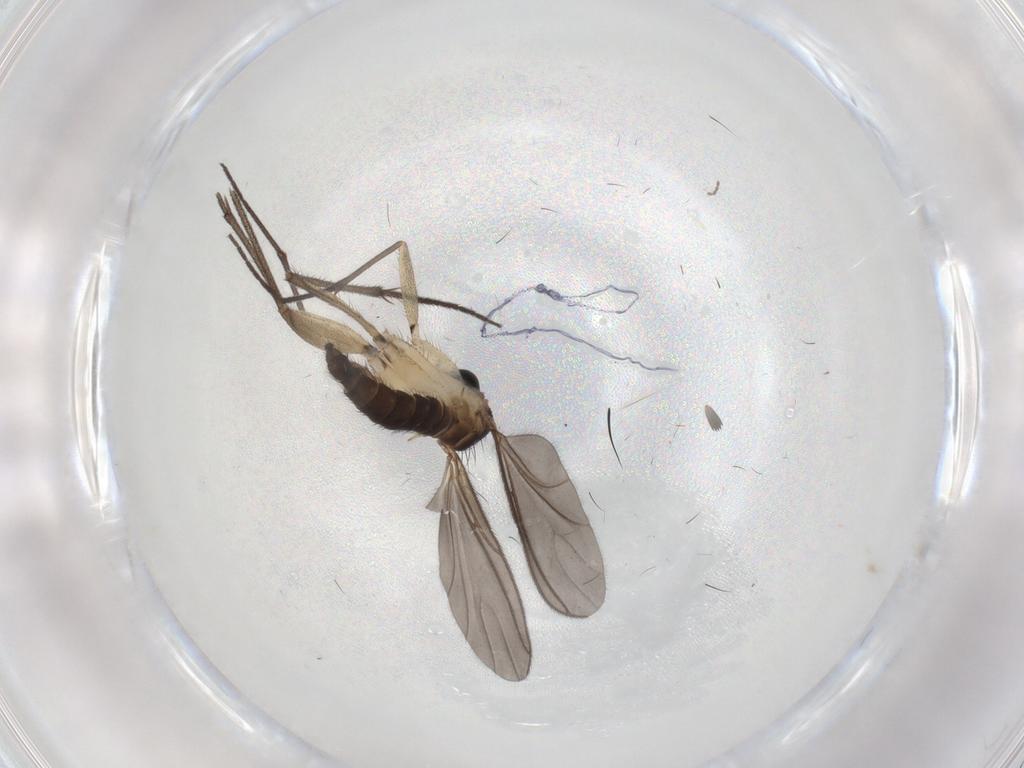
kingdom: Animalia
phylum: Arthropoda
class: Insecta
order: Diptera
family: Sciaridae
